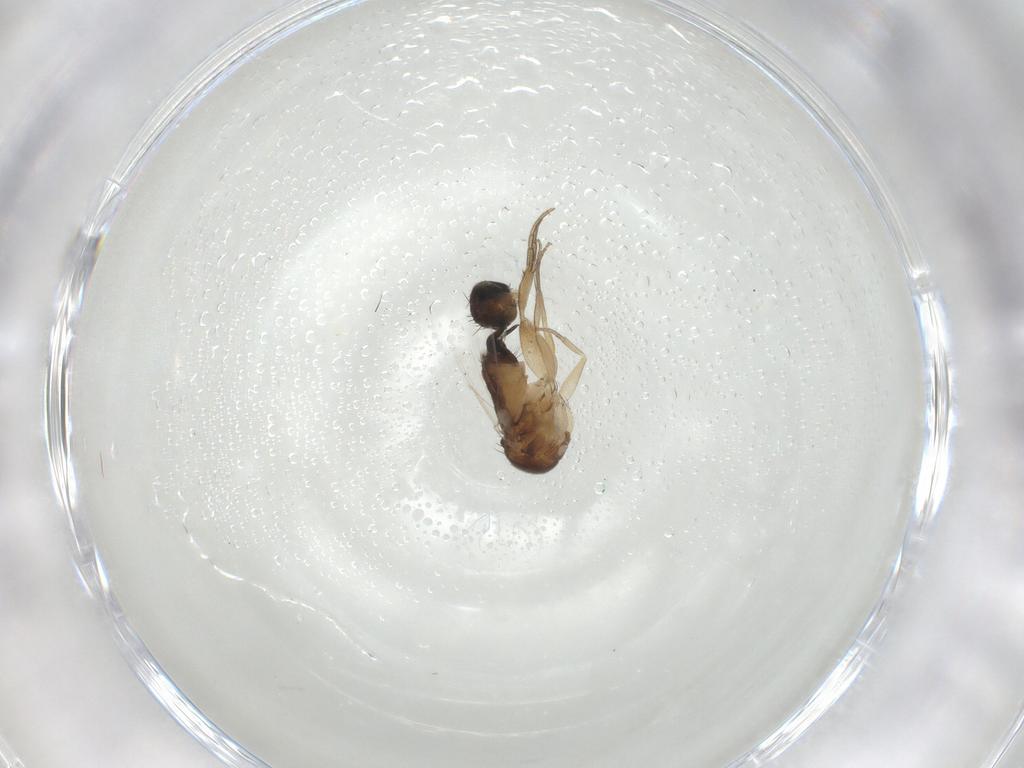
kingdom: Animalia
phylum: Arthropoda
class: Insecta
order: Diptera
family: Phoridae
